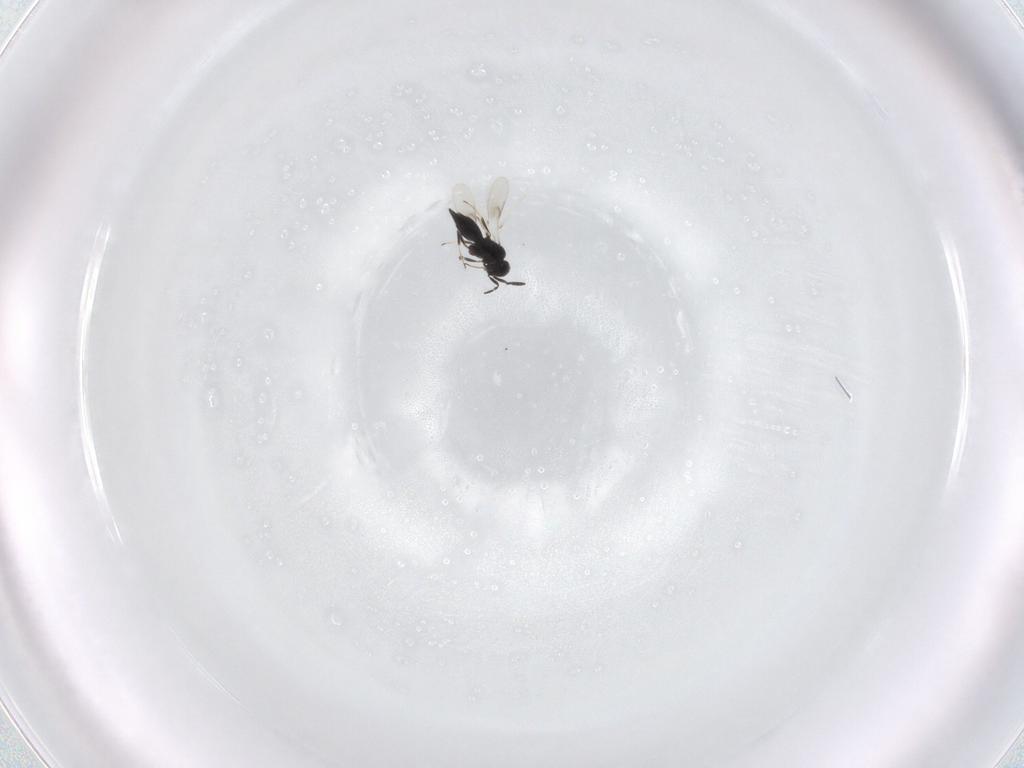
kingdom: Animalia
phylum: Arthropoda
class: Insecta
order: Hymenoptera
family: Scelionidae
